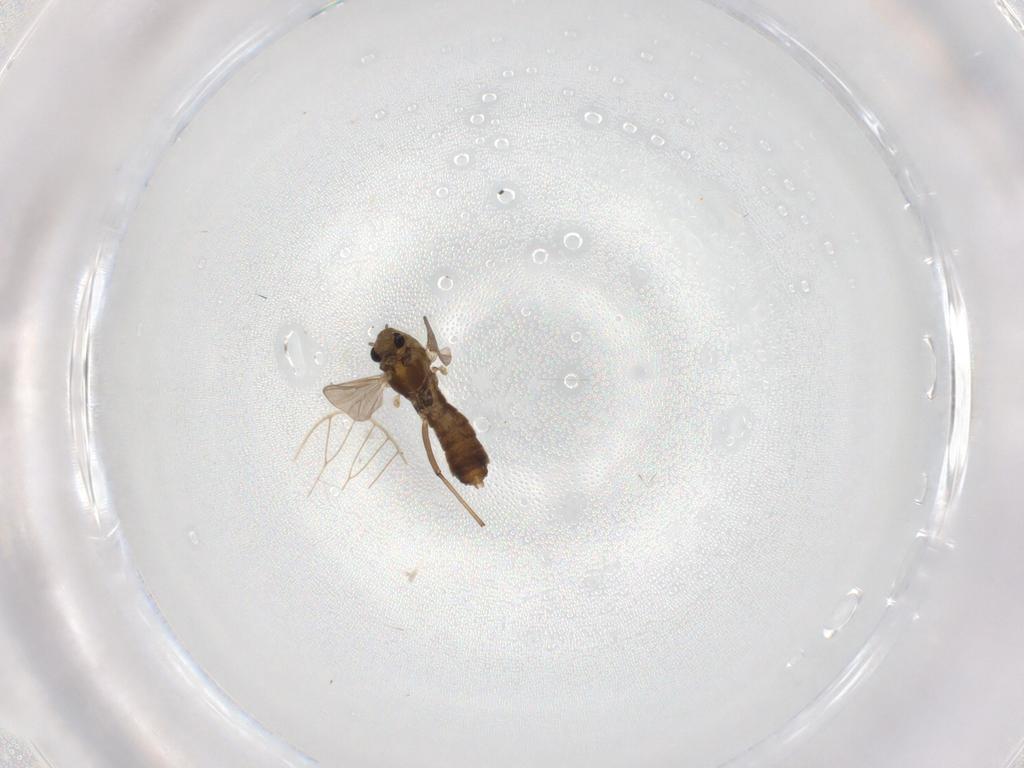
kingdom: Animalia
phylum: Arthropoda
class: Insecta
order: Diptera
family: Chironomidae
